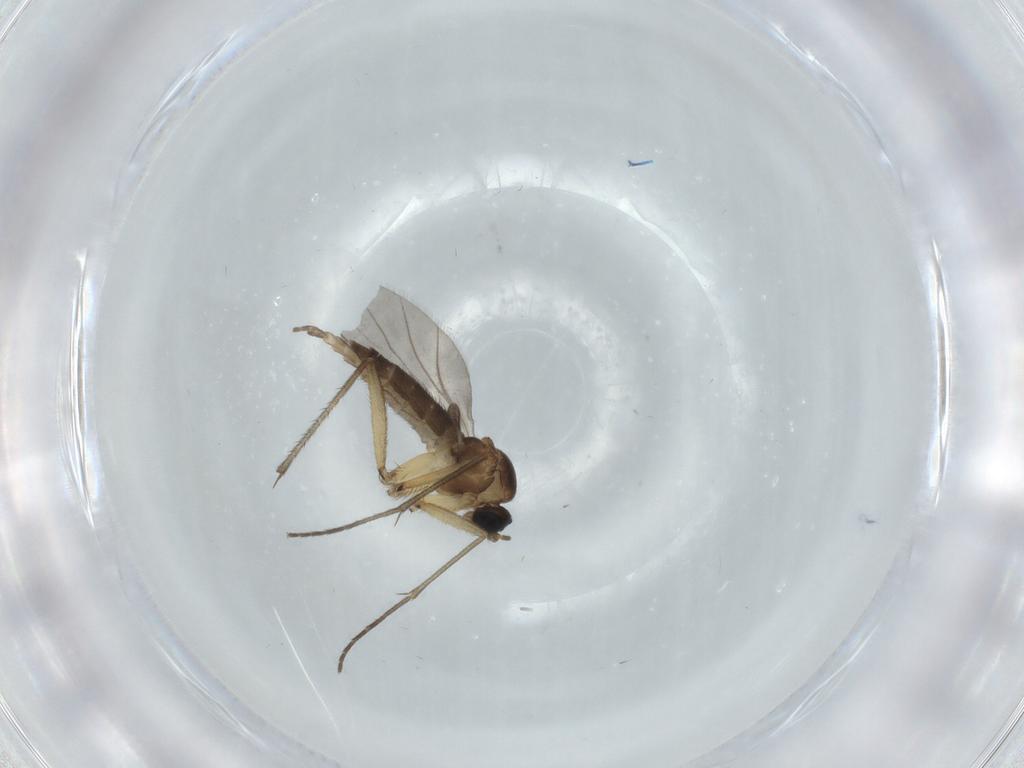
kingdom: Animalia
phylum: Arthropoda
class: Insecta
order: Diptera
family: Sciaridae
